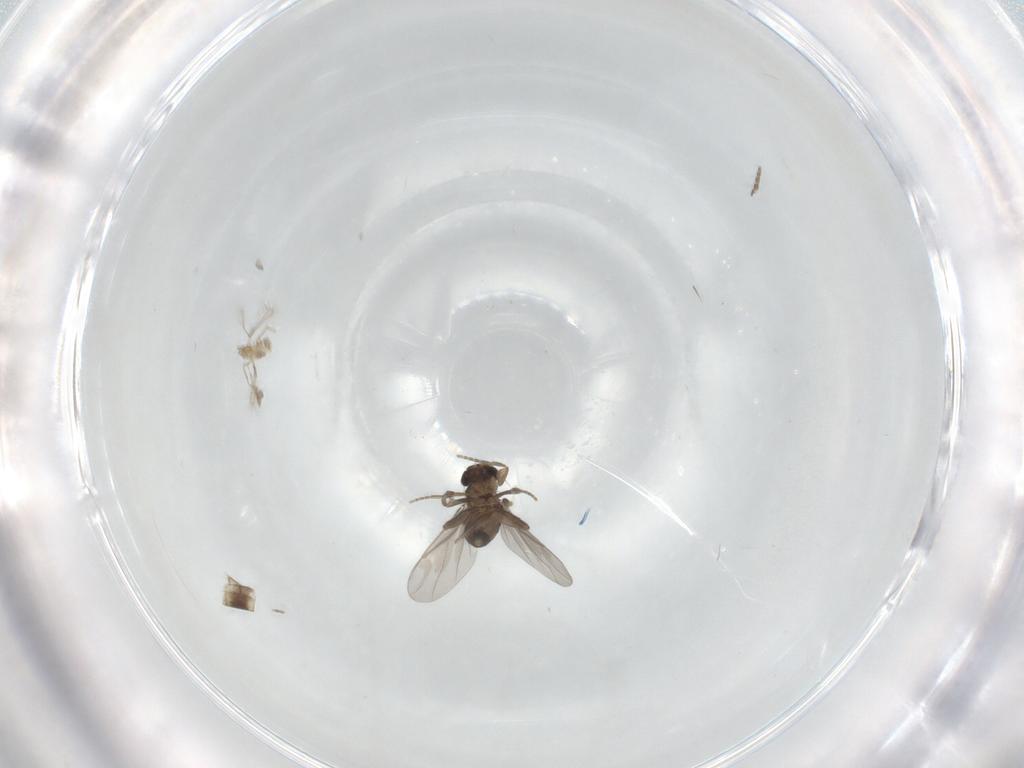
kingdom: Animalia
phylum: Arthropoda
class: Insecta
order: Diptera
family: Chironomidae
